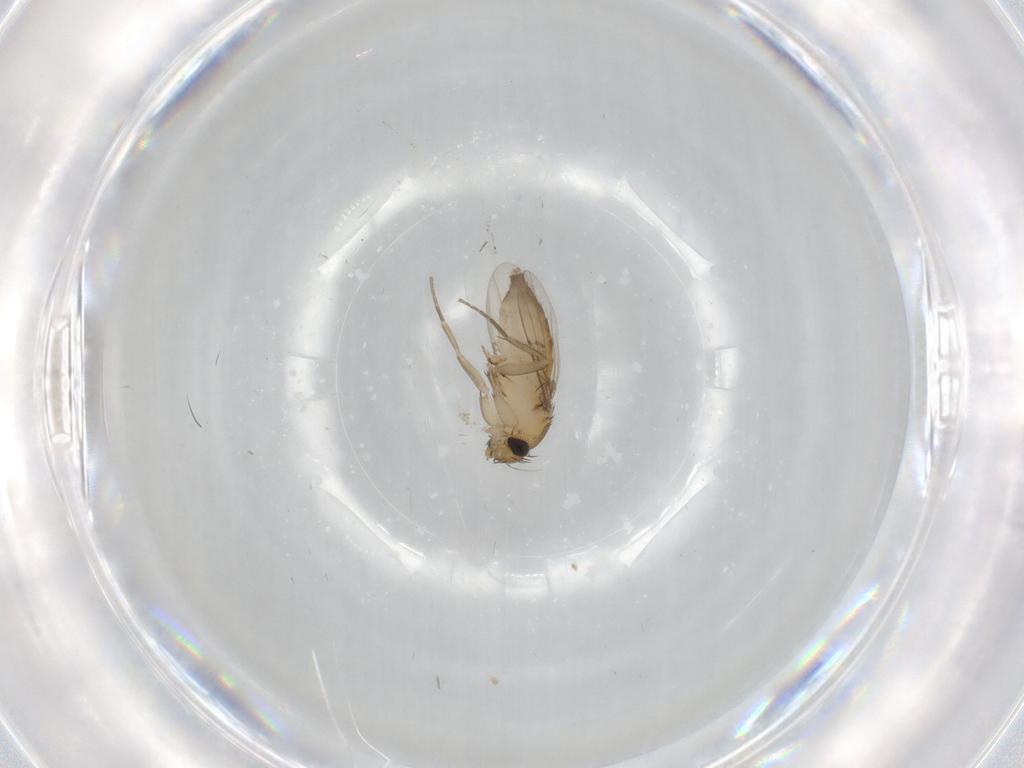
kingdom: Animalia
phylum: Arthropoda
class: Insecta
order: Diptera
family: Phoridae
